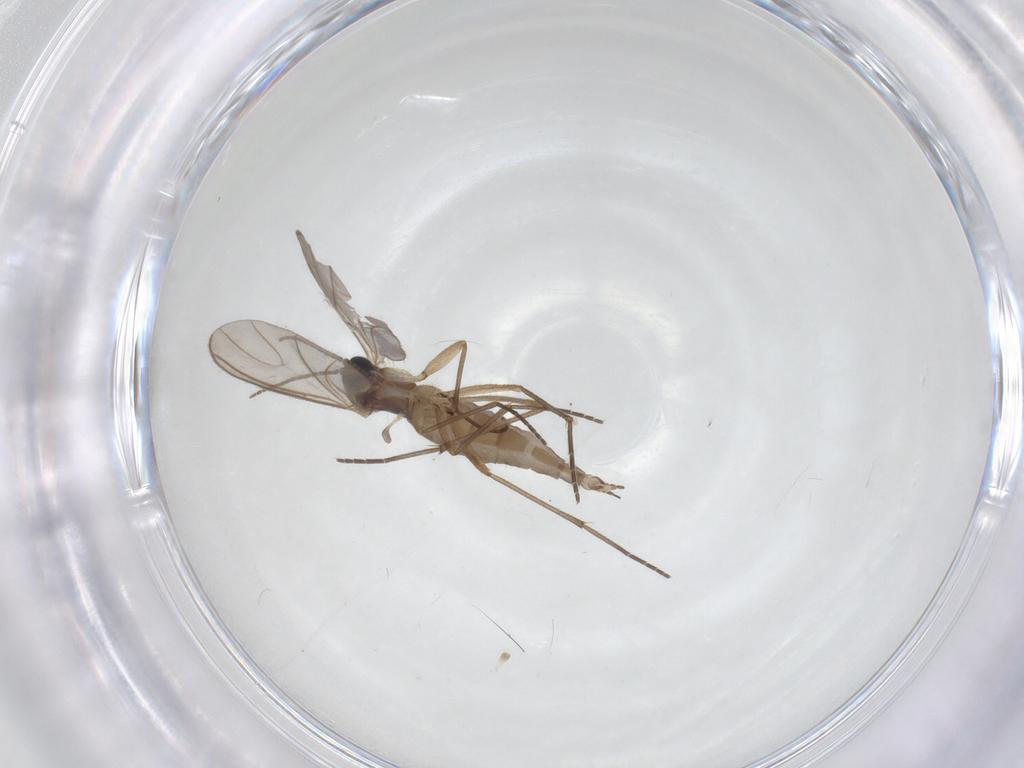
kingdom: Animalia
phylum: Arthropoda
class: Insecta
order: Diptera
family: Sciaridae
